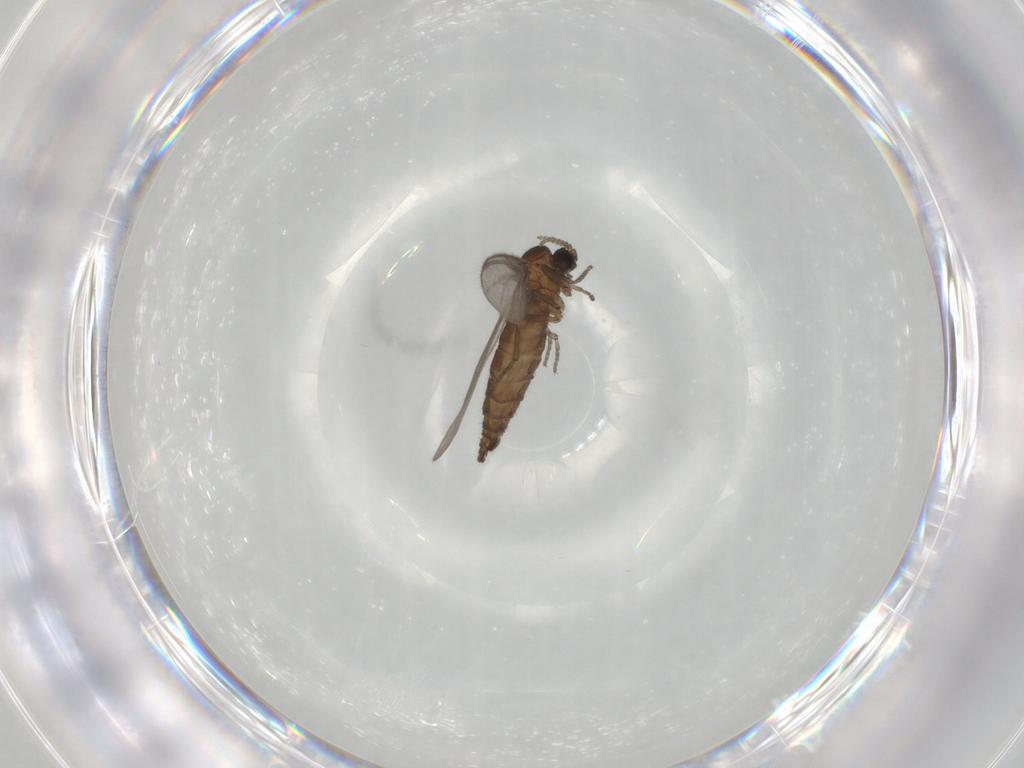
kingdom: Animalia
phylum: Arthropoda
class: Insecta
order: Diptera
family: Sciaridae
